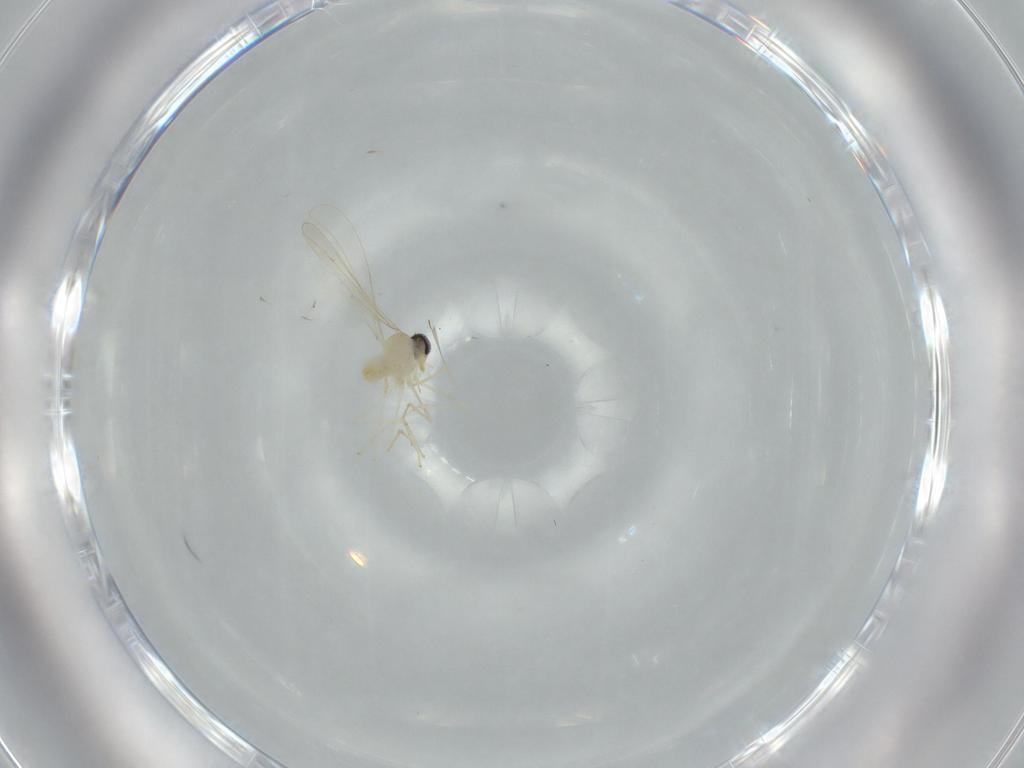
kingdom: Animalia
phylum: Arthropoda
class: Insecta
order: Diptera
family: Cecidomyiidae
